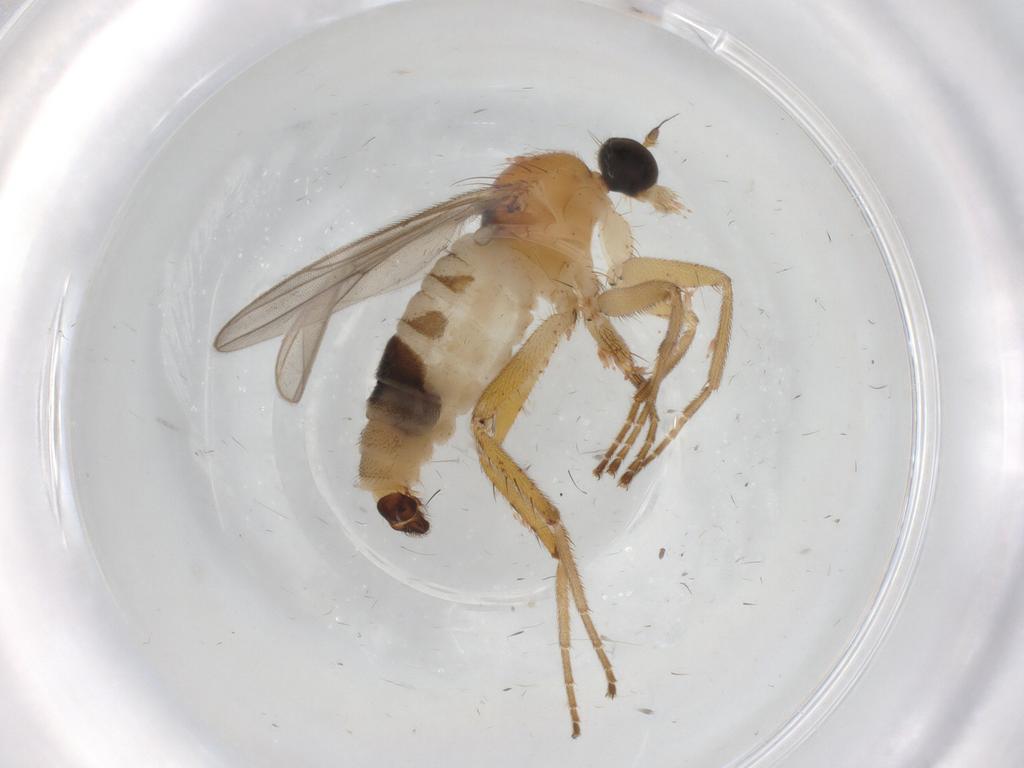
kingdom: Animalia
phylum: Arthropoda
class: Insecta
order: Diptera
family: Hybotidae
